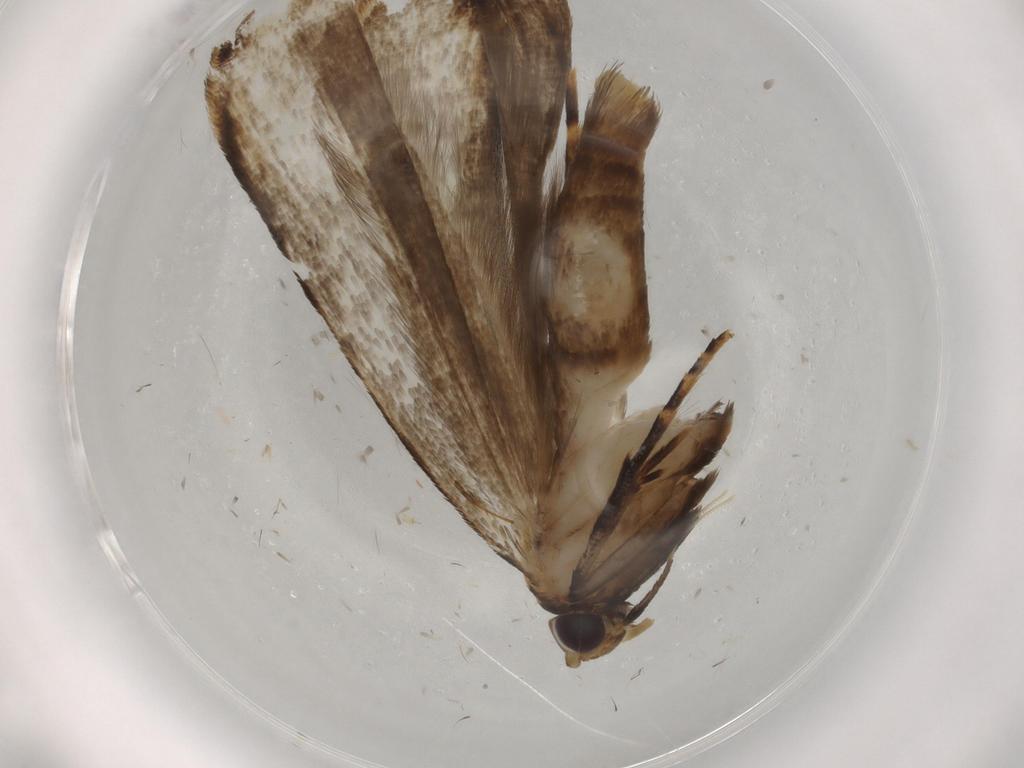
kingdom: Animalia
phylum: Arthropoda
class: Insecta
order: Lepidoptera
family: Gelechiidae
